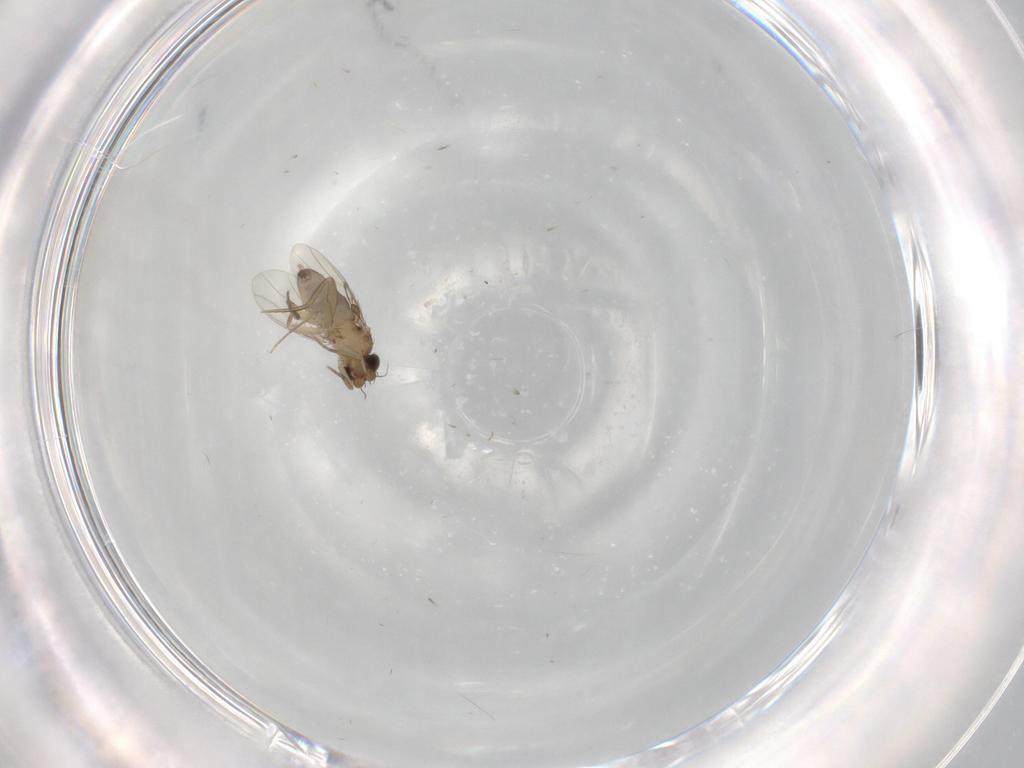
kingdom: Animalia
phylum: Arthropoda
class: Insecta
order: Diptera
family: Phoridae
